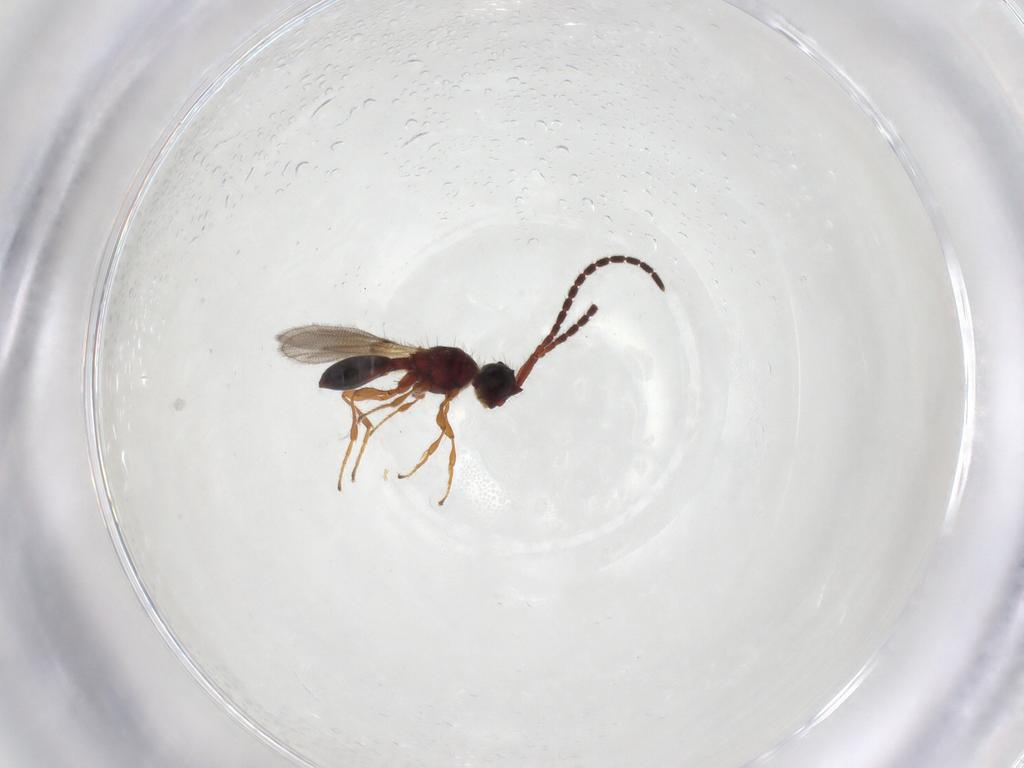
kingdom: Animalia
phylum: Arthropoda
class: Insecta
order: Hymenoptera
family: Diapriidae
